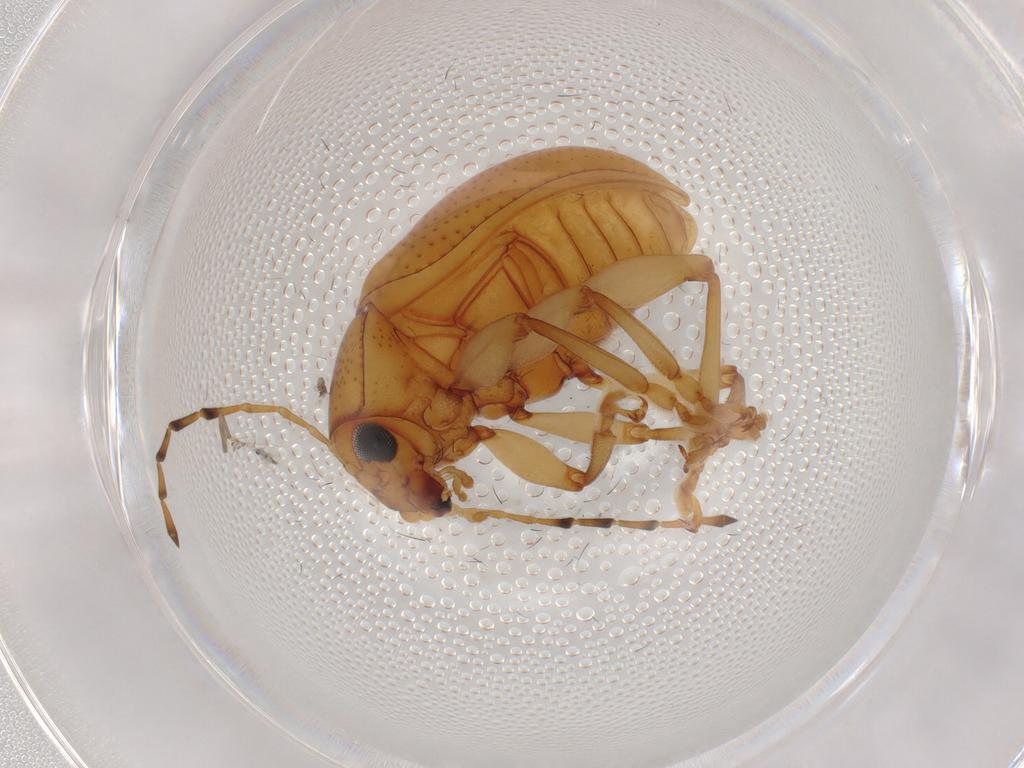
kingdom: Animalia
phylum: Arthropoda
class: Insecta
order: Coleoptera
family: Chrysomelidae
